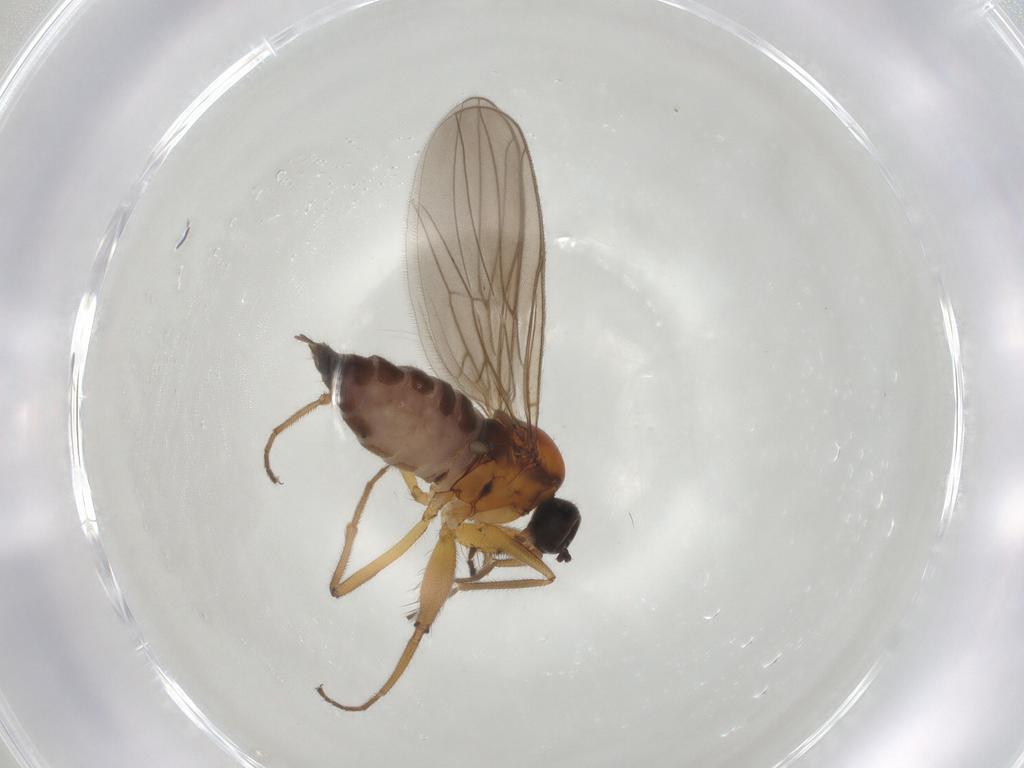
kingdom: Animalia
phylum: Arthropoda
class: Insecta
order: Diptera
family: Hybotidae
